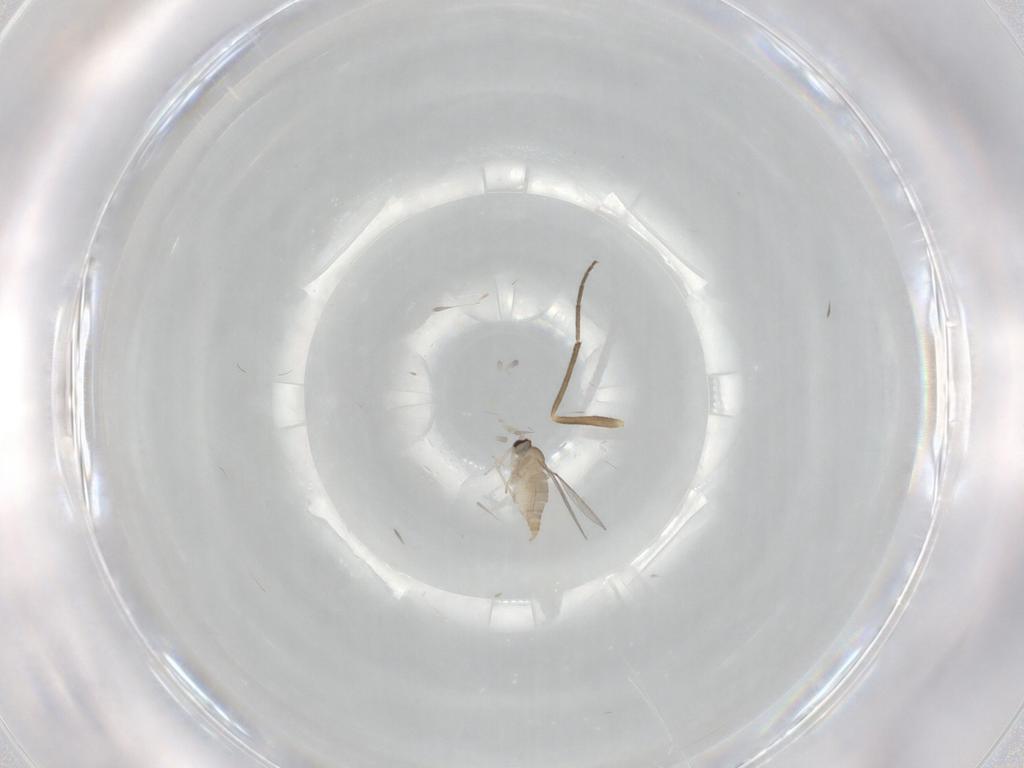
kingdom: Animalia
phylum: Arthropoda
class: Insecta
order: Diptera
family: Cecidomyiidae
